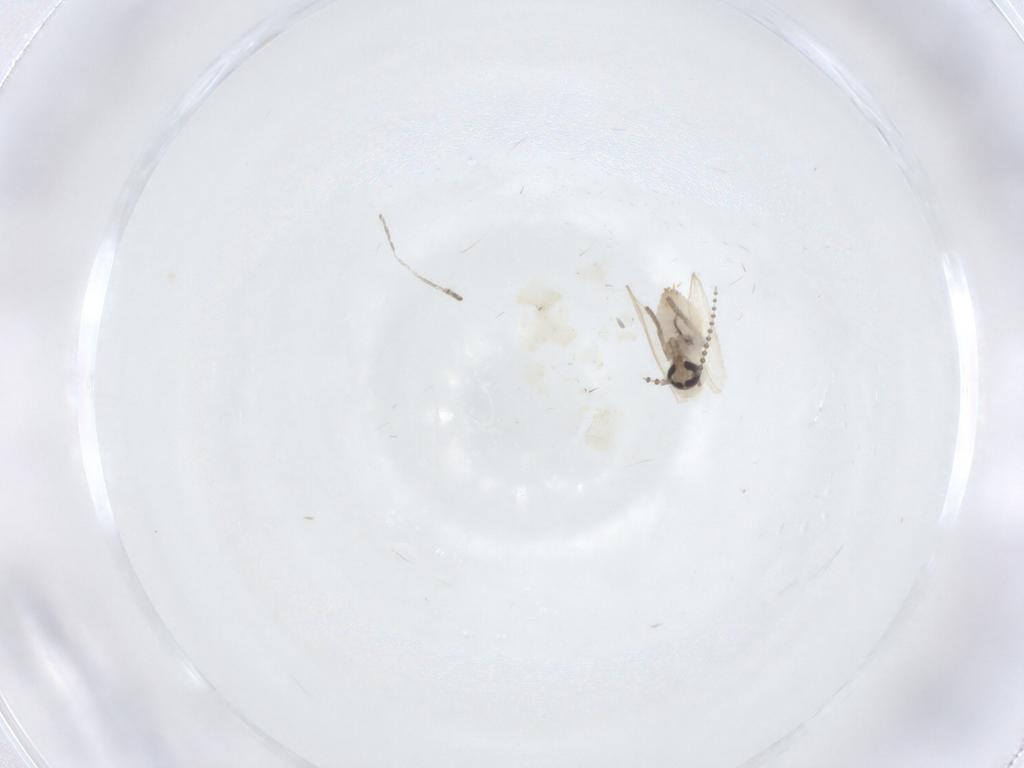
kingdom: Animalia
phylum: Arthropoda
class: Insecta
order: Diptera
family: Psychodidae
